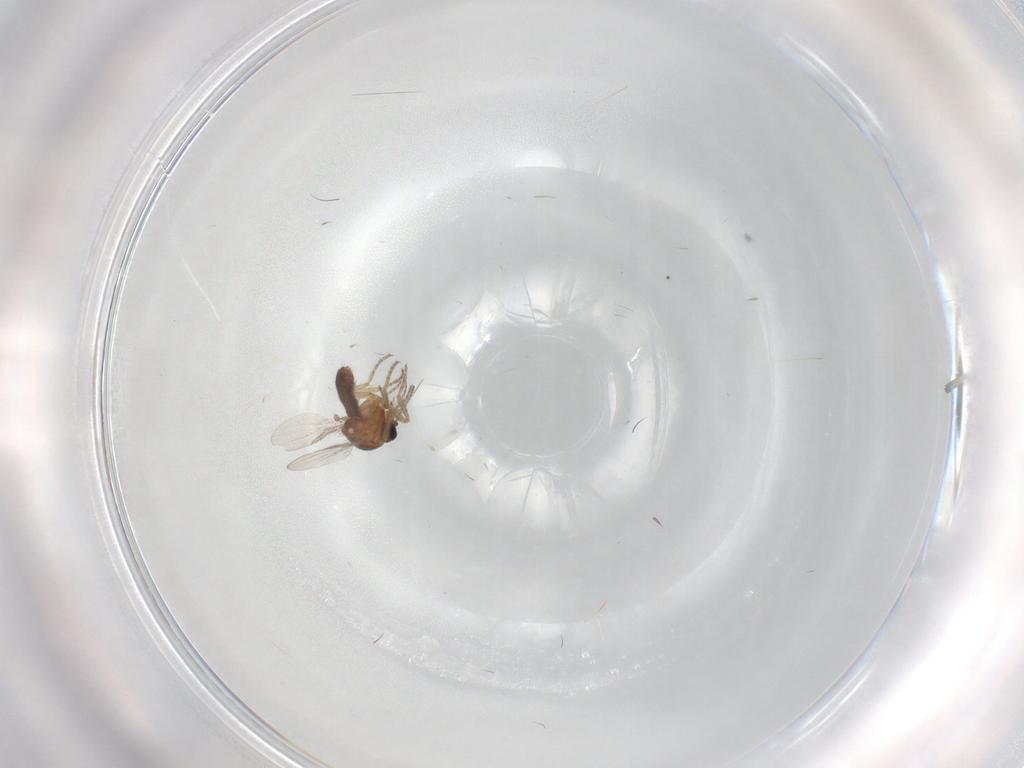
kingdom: Animalia
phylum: Arthropoda
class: Insecta
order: Diptera
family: Ceratopogonidae
